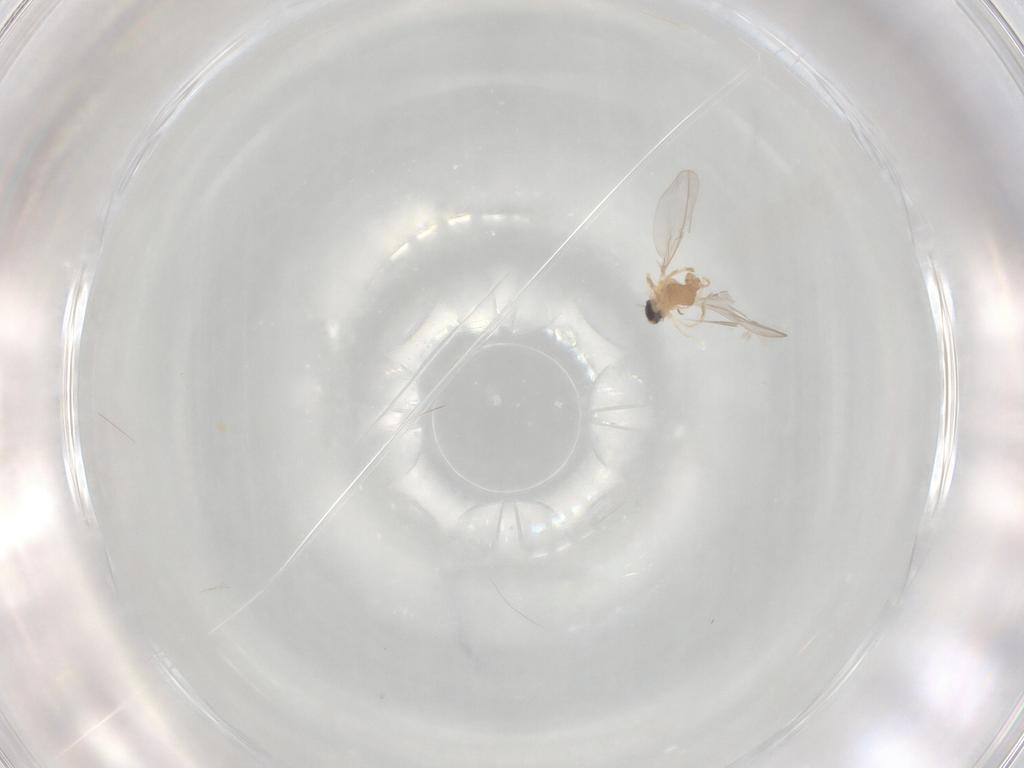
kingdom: Animalia
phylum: Arthropoda
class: Insecta
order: Diptera
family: Cecidomyiidae
